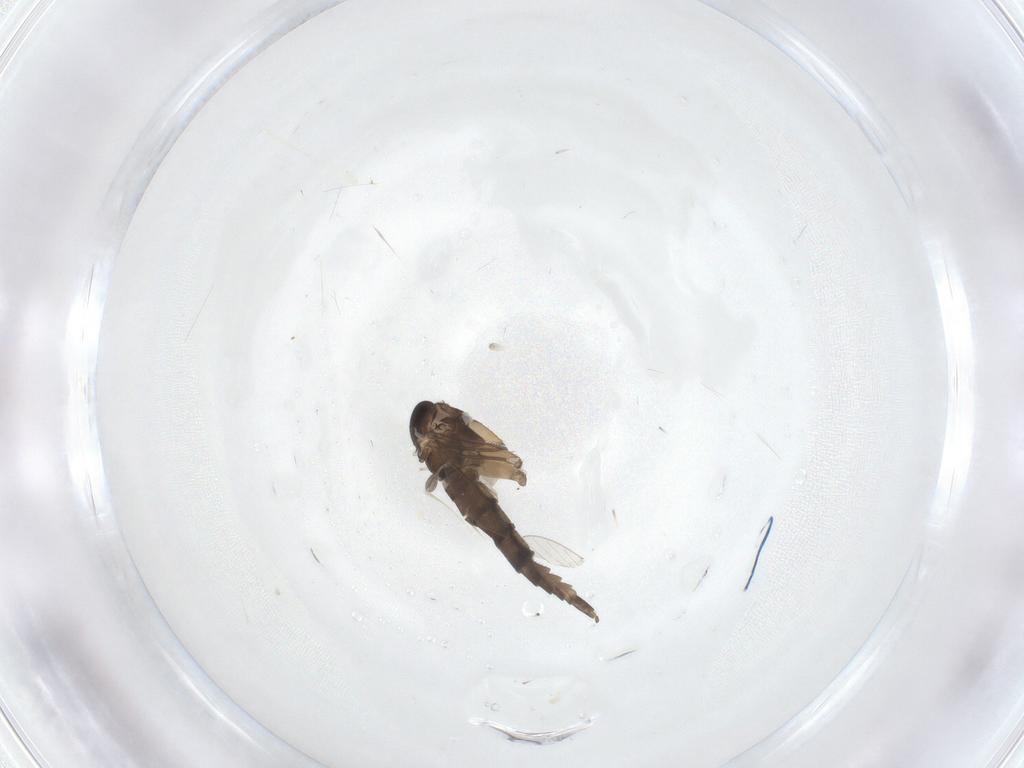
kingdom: Animalia
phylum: Arthropoda
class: Insecta
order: Diptera
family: Sciaridae
